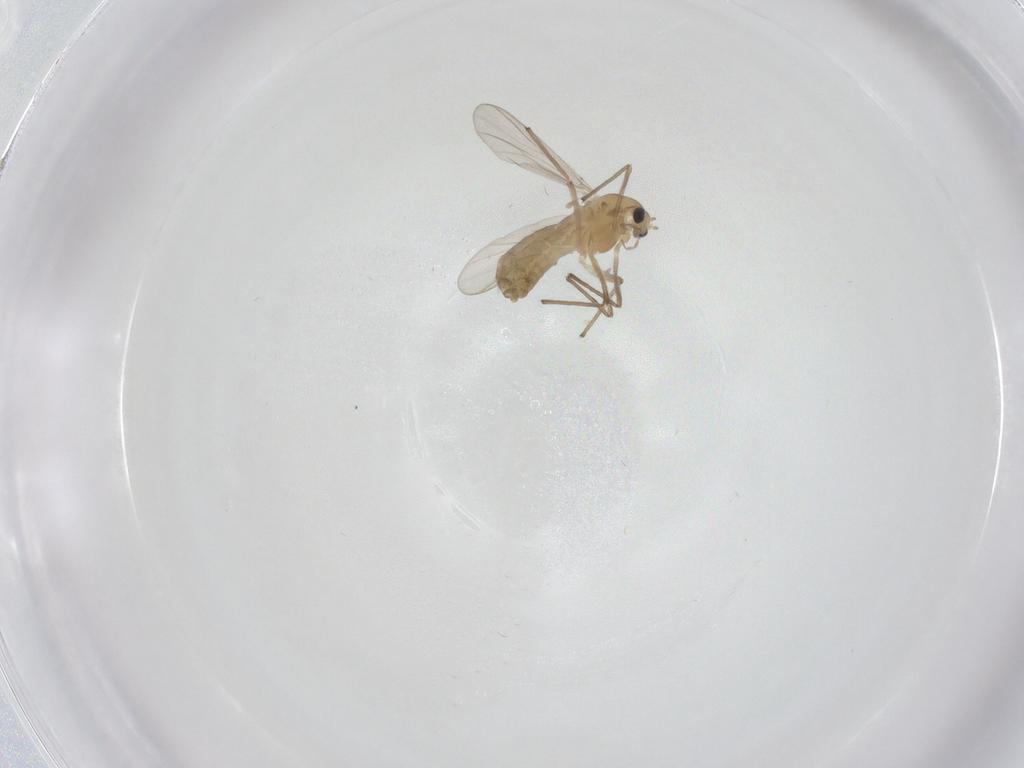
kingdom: Animalia
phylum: Arthropoda
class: Insecta
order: Diptera
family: Chironomidae
